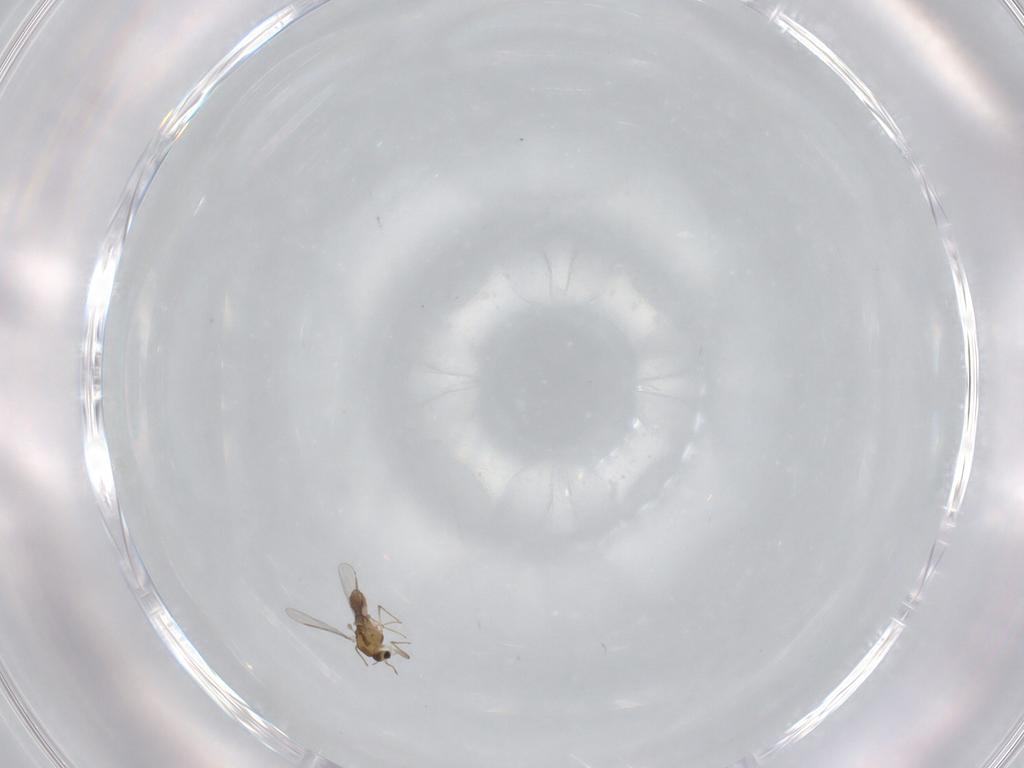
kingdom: Animalia
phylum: Arthropoda
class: Insecta
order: Diptera
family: Chironomidae
